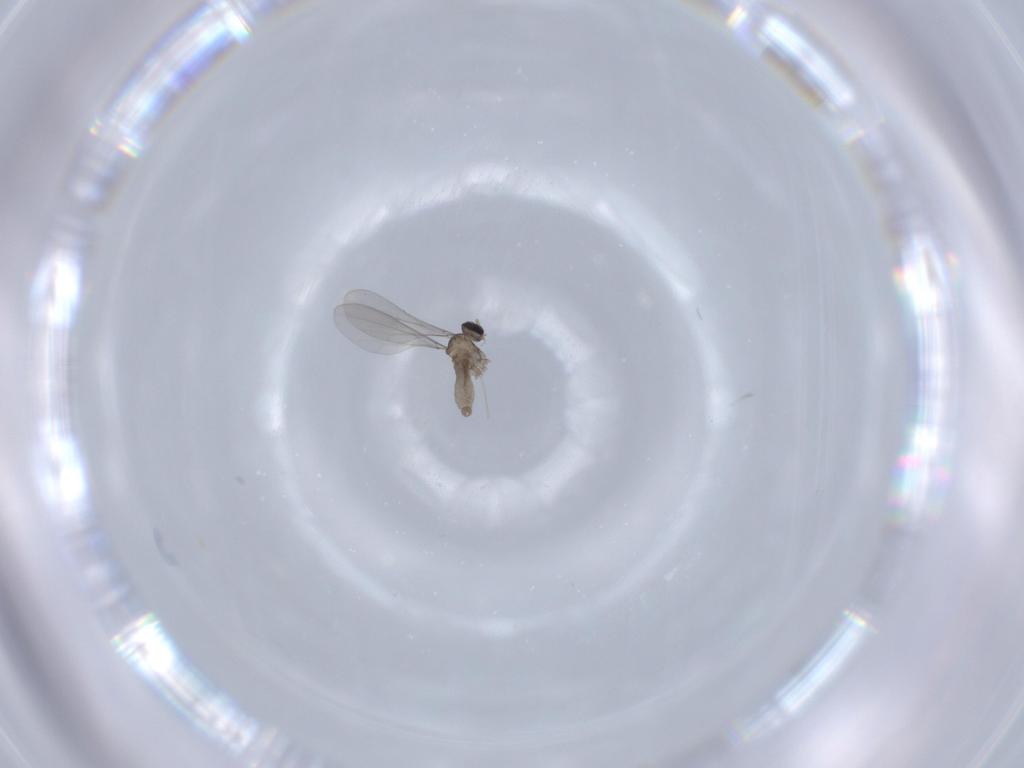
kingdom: Animalia
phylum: Arthropoda
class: Insecta
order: Diptera
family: Cecidomyiidae
